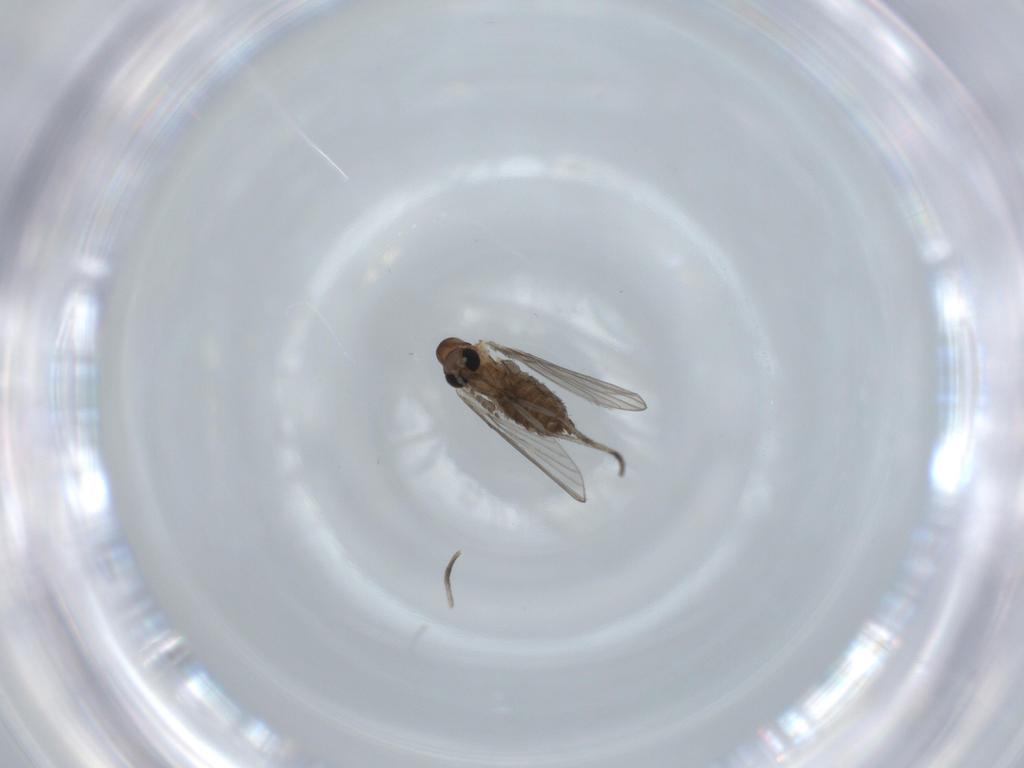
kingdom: Animalia
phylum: Arthropoda
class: Insecta
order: Diptera
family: Psychodidae
